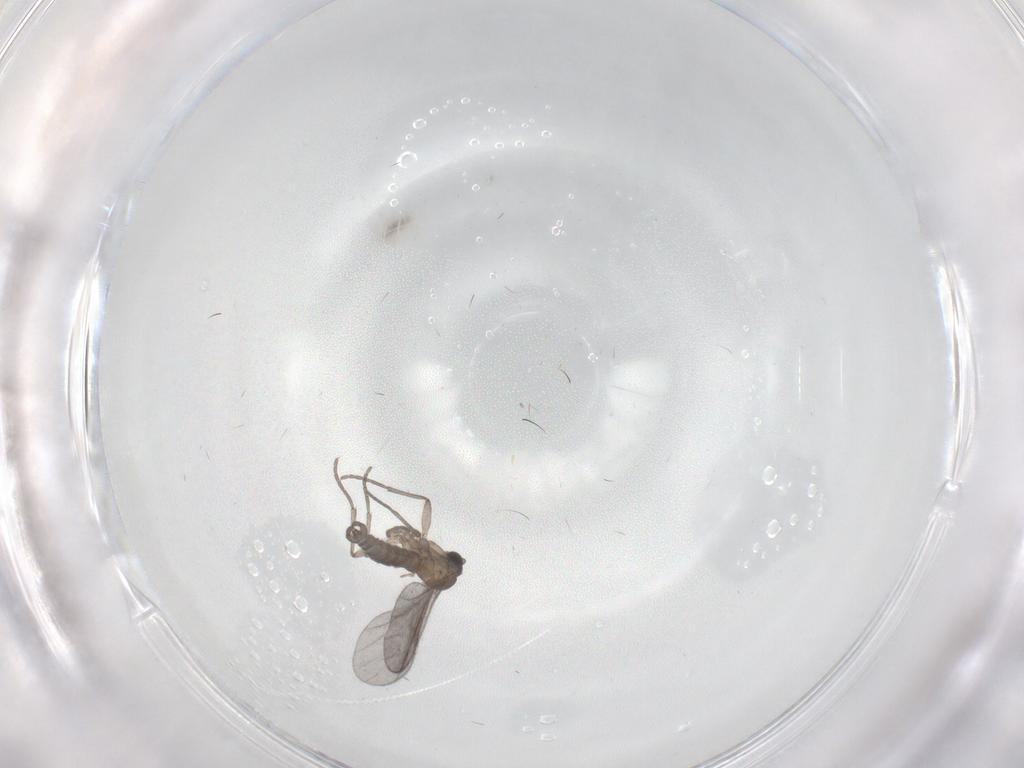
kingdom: Animalia
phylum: Arthropoda
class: Insecta
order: Diptera
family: Sciaridae
